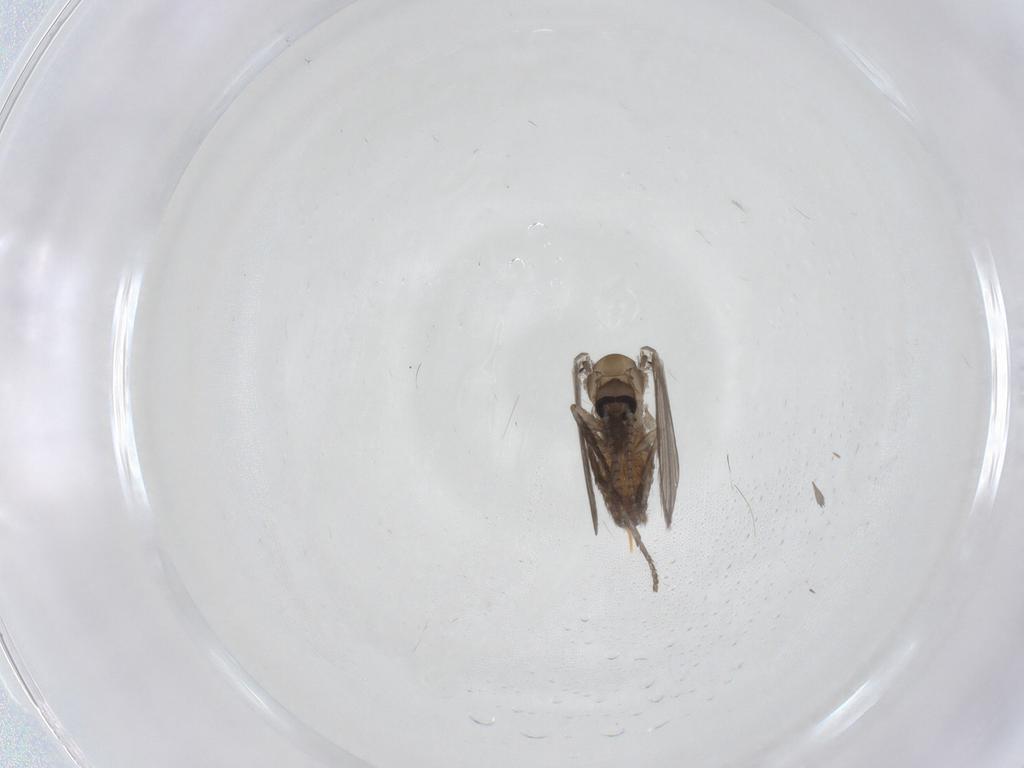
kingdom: Animalia
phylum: Arthropoda
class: Insecta
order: Diptera
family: Psychodidae
